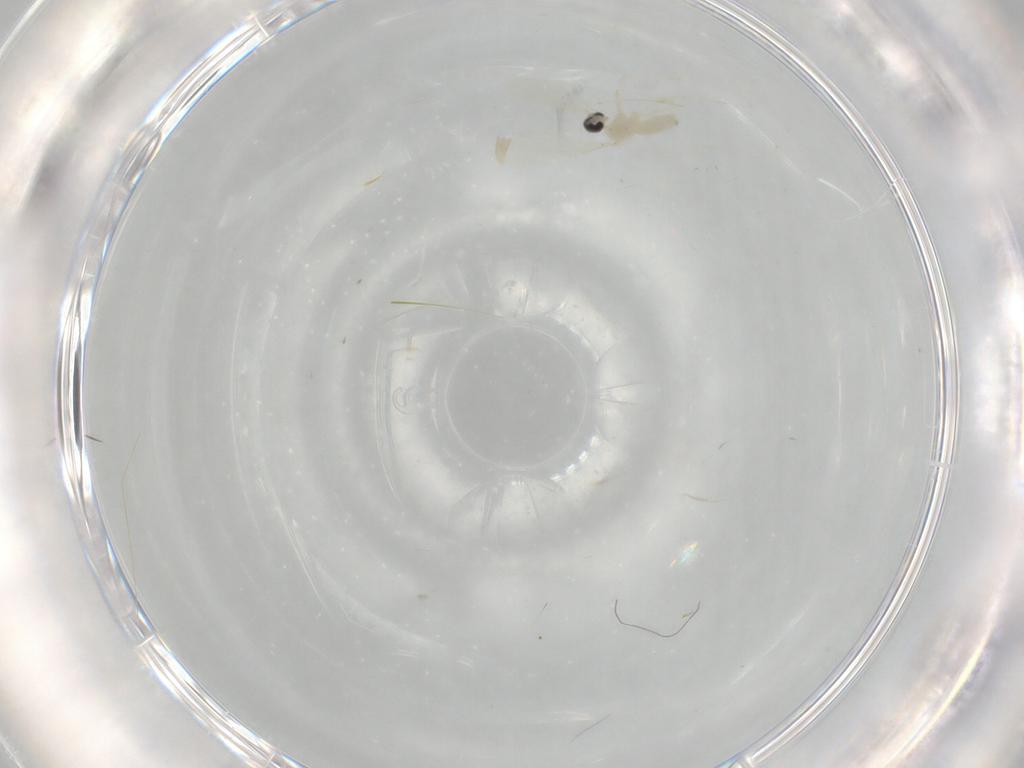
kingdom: Animalia
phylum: Arthropoda
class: Insecta
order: Diptera
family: Cecidomyiidae
